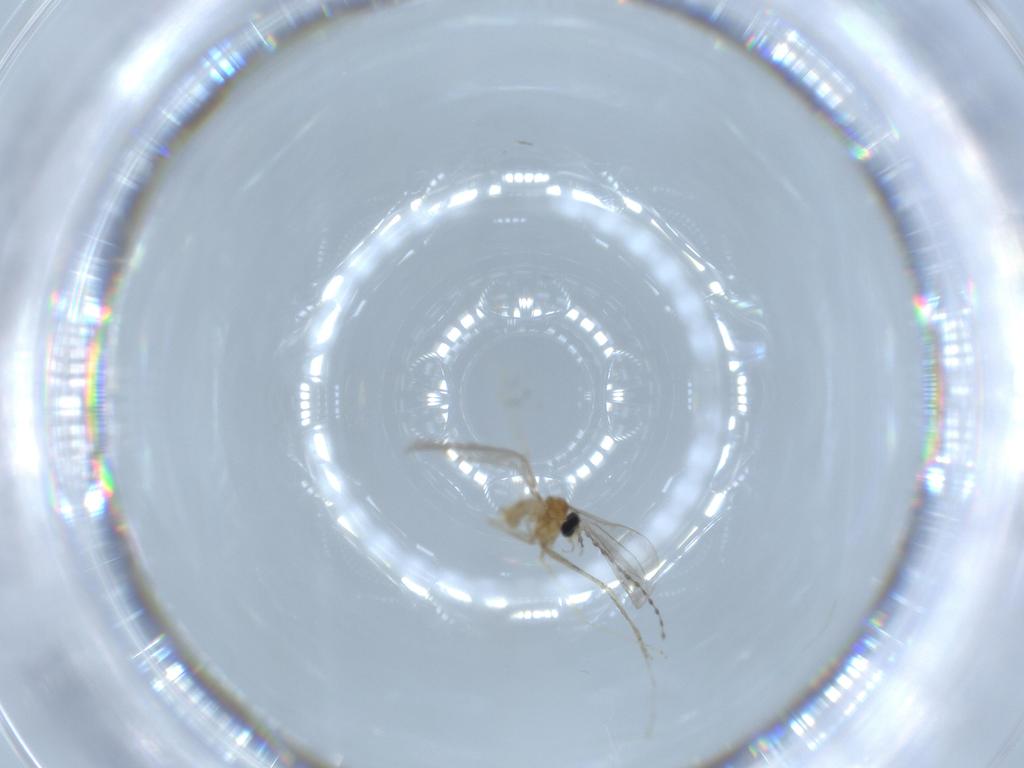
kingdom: Animalia
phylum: Arthropoda
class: Insecta
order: Diptera
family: Cecidomyiidae
